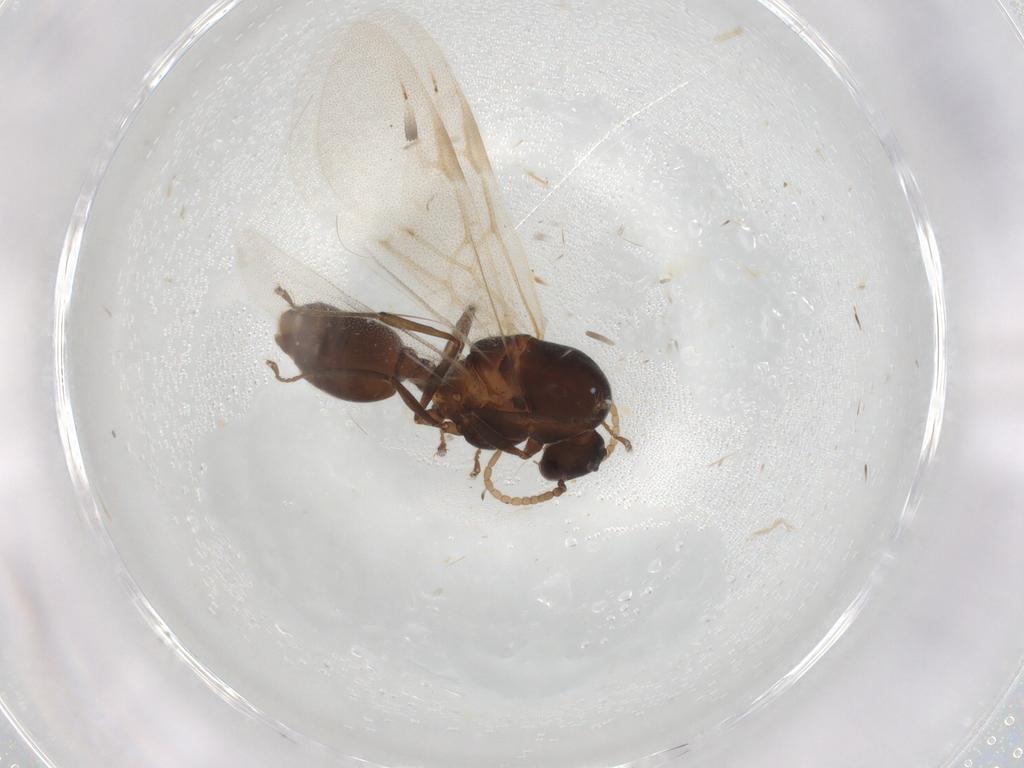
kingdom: Animalia
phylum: Arthropoda
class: Insecta
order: Hymenoptera
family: Formicidae
